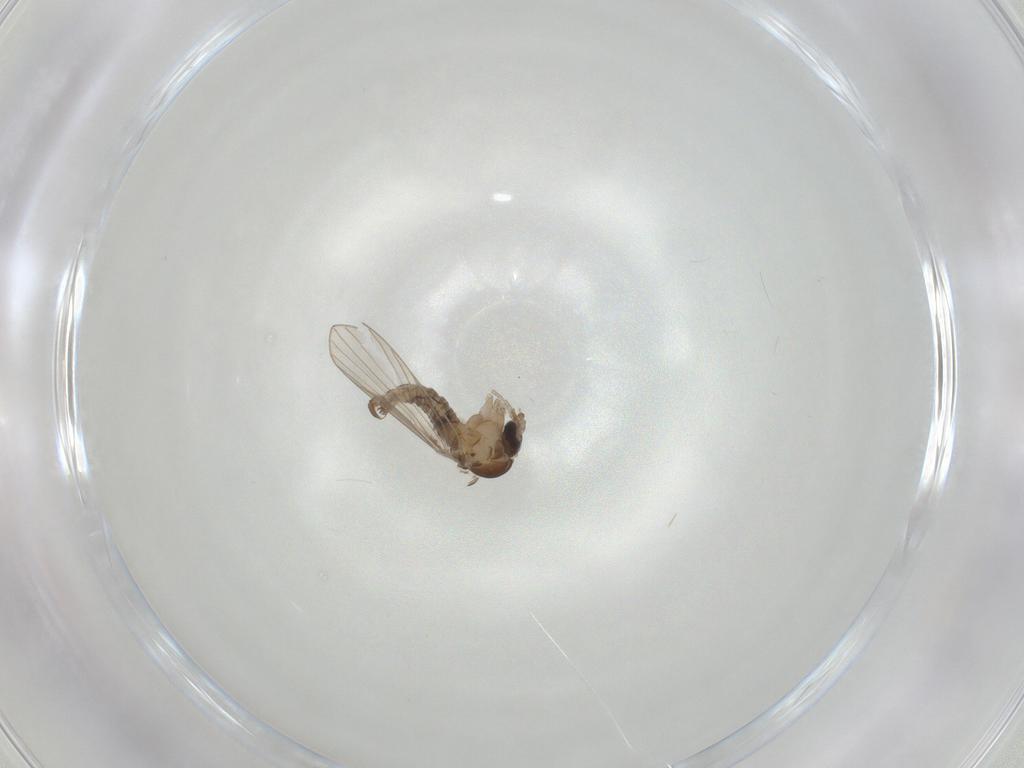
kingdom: Animalia
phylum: Arthropoda
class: Insecta
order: Diptera
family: Psychodidae
